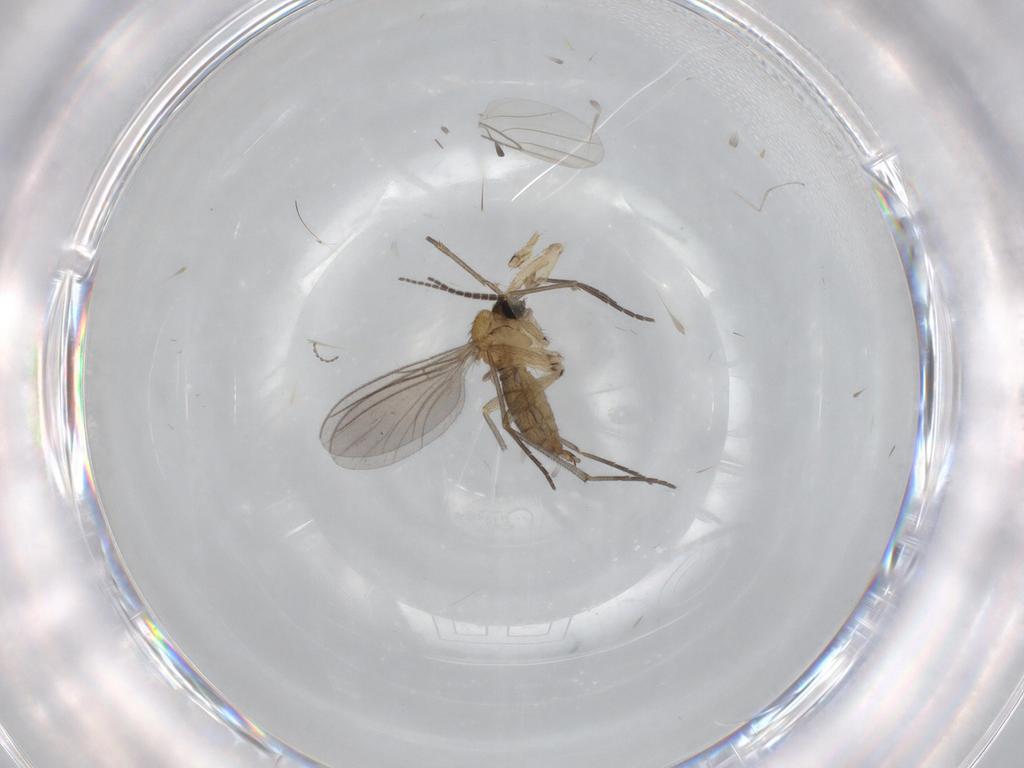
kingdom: Animalia
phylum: Arthropoda
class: Insecta
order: Diptera
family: Sciaridae
